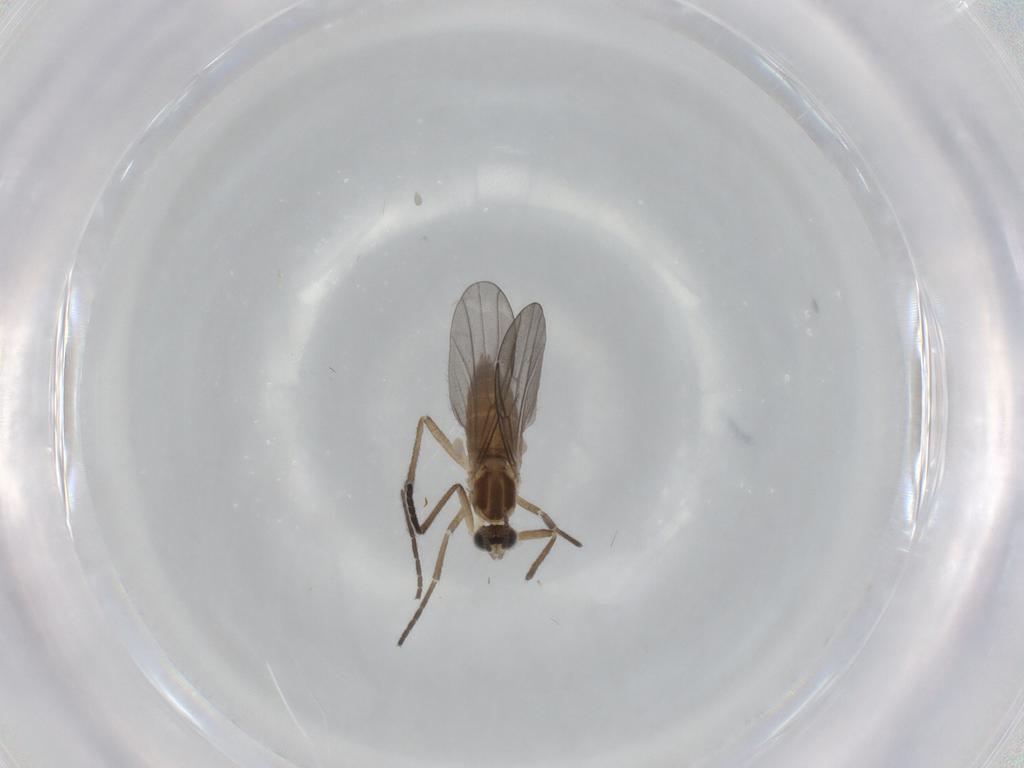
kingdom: Animalia
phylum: Arthropoda
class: Insecta
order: Diptera
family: Cecidomyiidae
